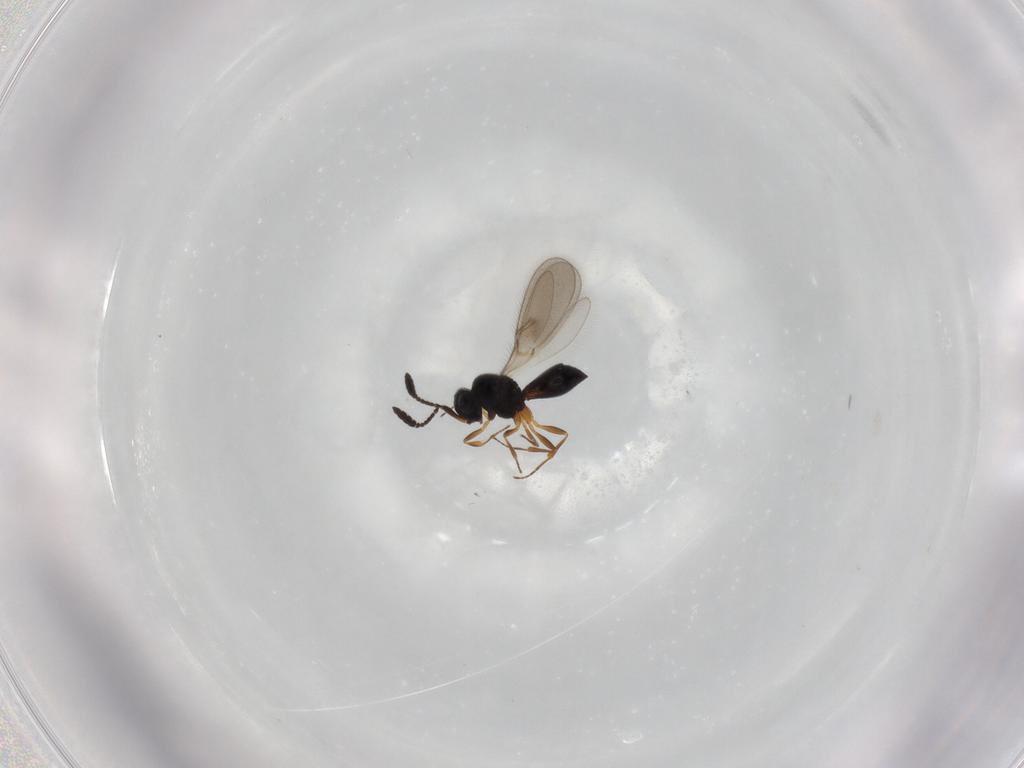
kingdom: Animalia
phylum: Arthropoda
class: Insecta
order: Hymenoptera
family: Scelionidae
